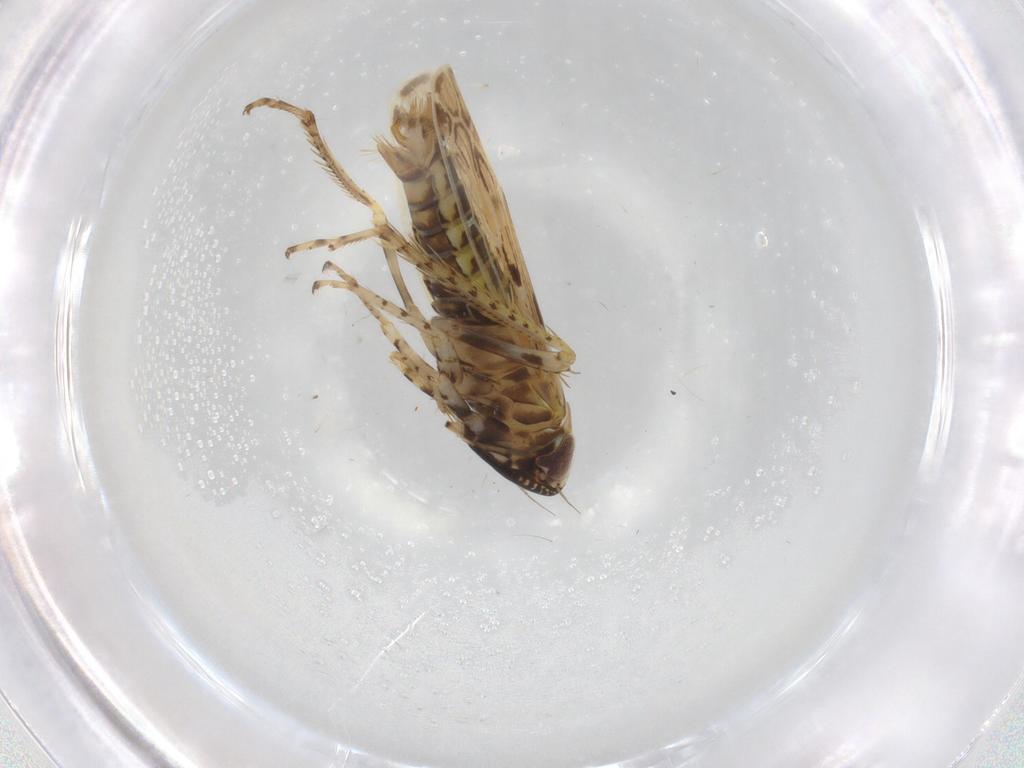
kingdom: Animalia
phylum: Arthropoda
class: Insecta
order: Hemiptera
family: Cicadellidae
